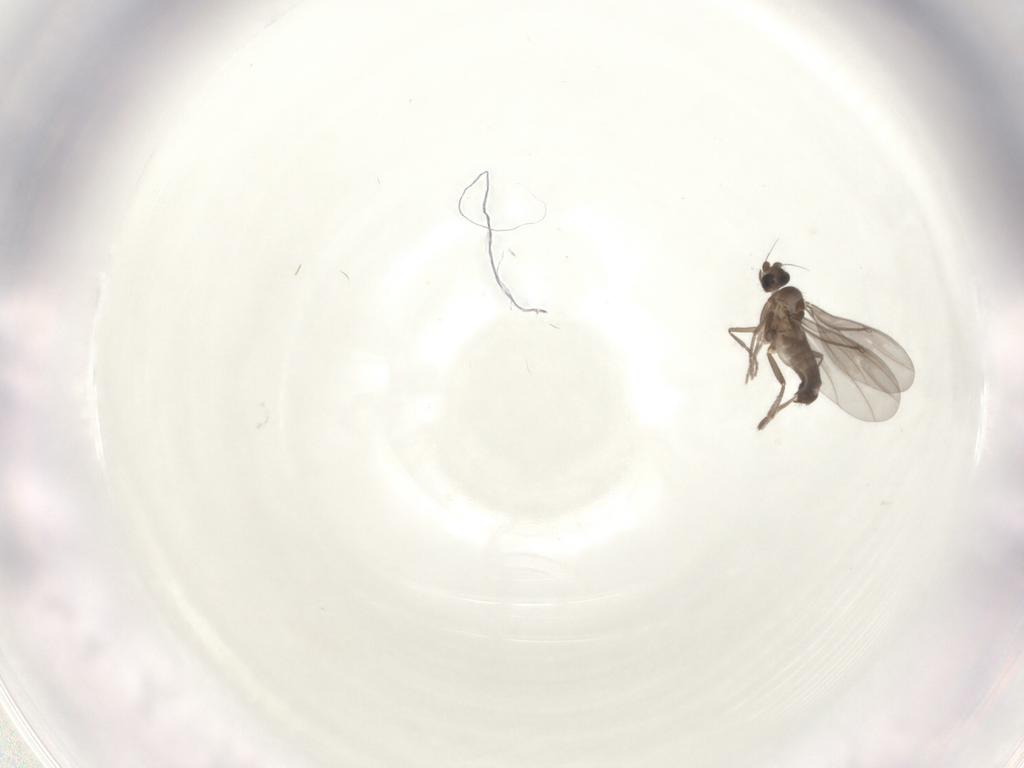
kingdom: Animalia
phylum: Arthropoda
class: Insecta
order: Diptera
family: Phoridae
